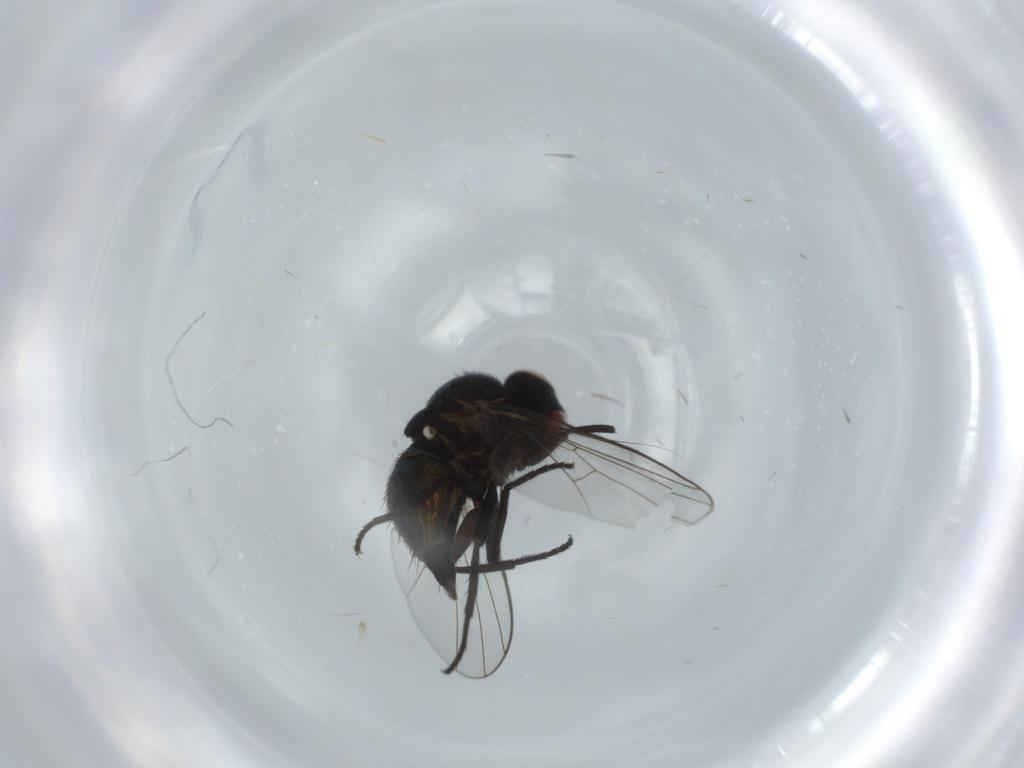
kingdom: Animalia
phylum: Arthropoda
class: Insecta
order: Diptera
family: Agromyzidae
